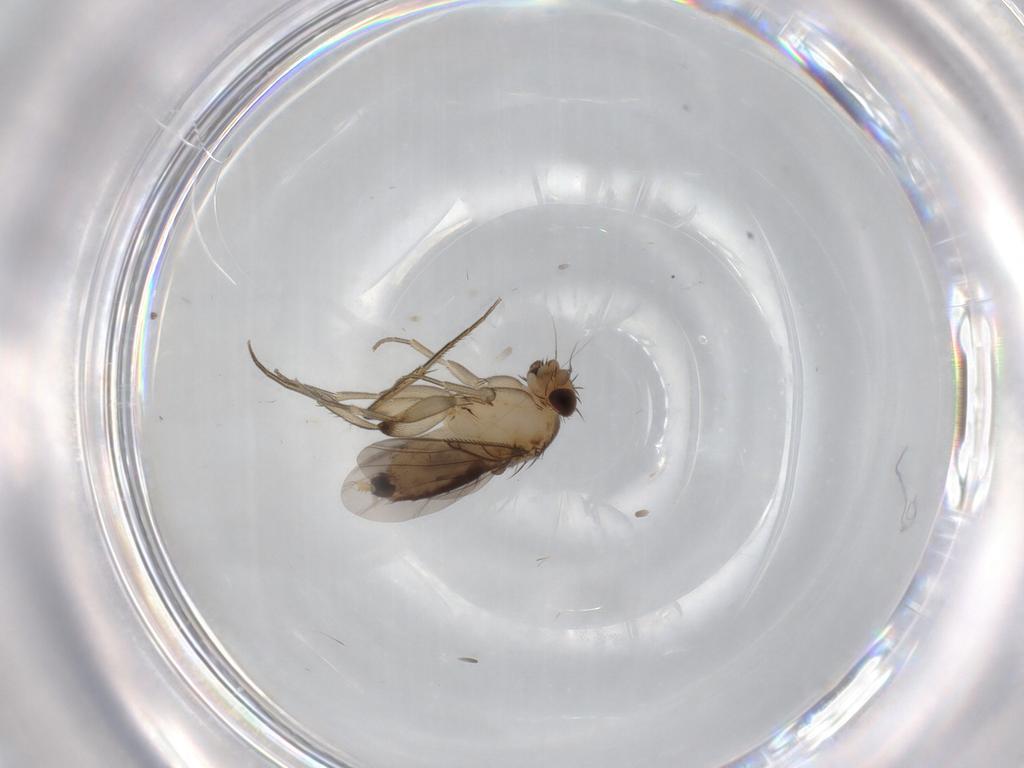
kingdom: Animalia
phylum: Arthropoda
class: Insecta
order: Diptera
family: Phoridae
